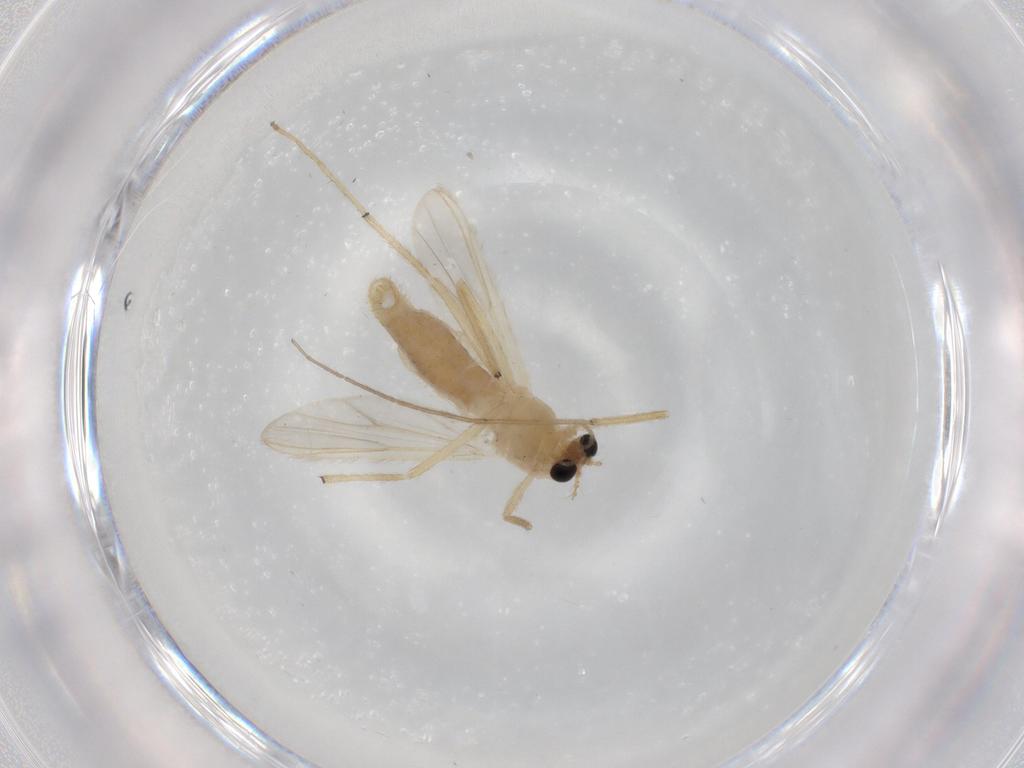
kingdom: Animalia
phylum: Arthropoda
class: Insecta
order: Diptera
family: Chironomidae
